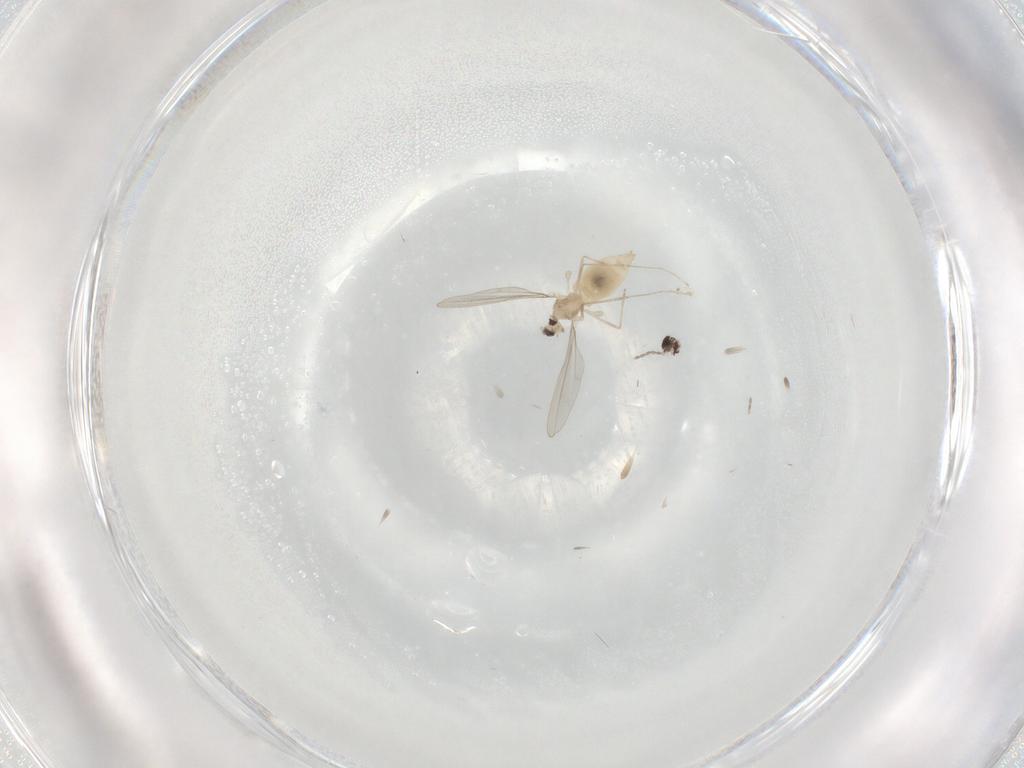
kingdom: Animalia
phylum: Arthropoda
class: Insecta
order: Diptera
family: Cecidomyiidae
